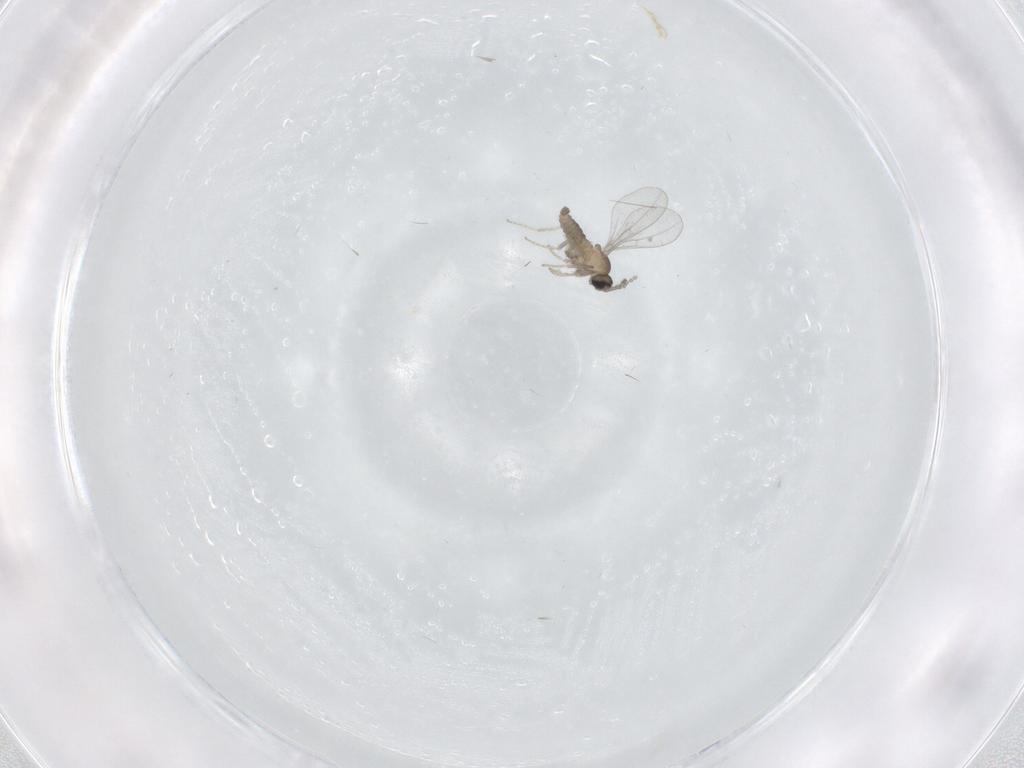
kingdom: Animalia
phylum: Arthropoda
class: Insecta
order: Diptera
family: Cecidomyiidae
